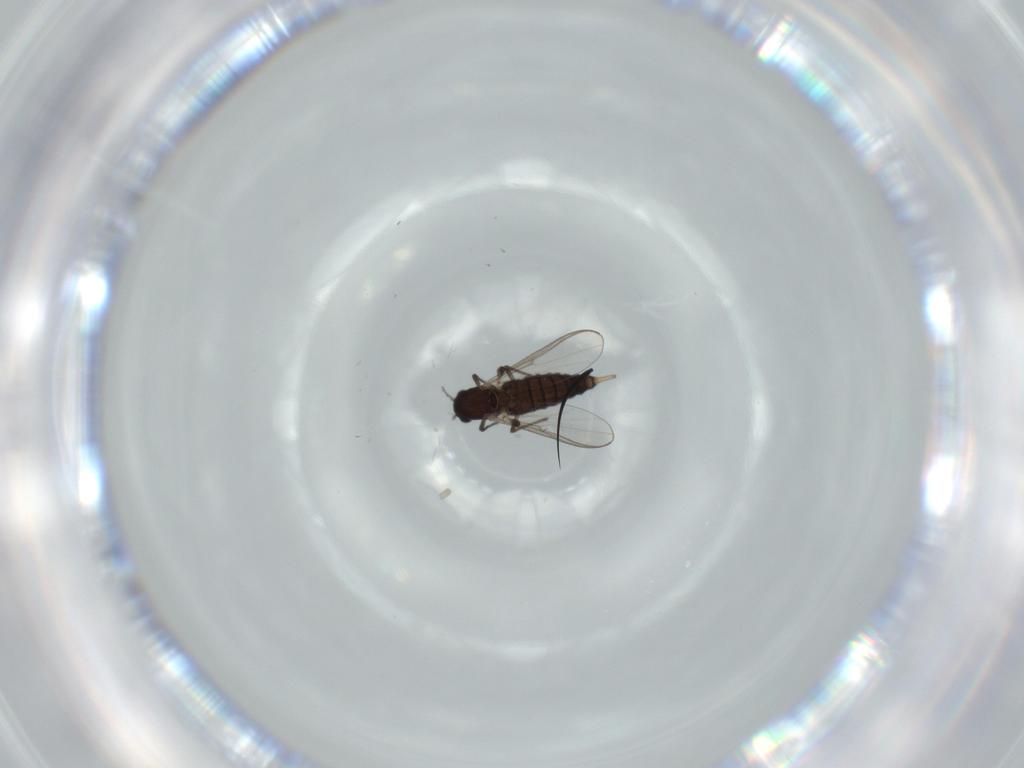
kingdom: Animalia
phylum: Arthropoda
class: Insecta
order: Diptera
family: Chironomidae
